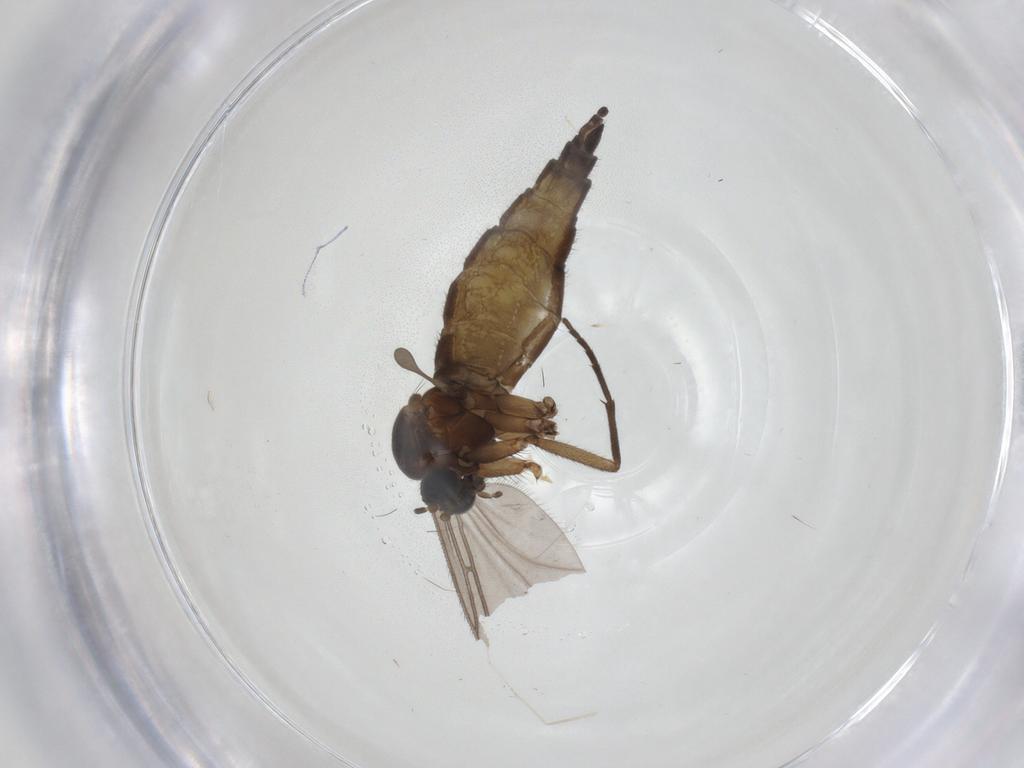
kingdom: Animalia
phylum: Arthropoda
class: Insecta
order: Diptera
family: Sciaridae
